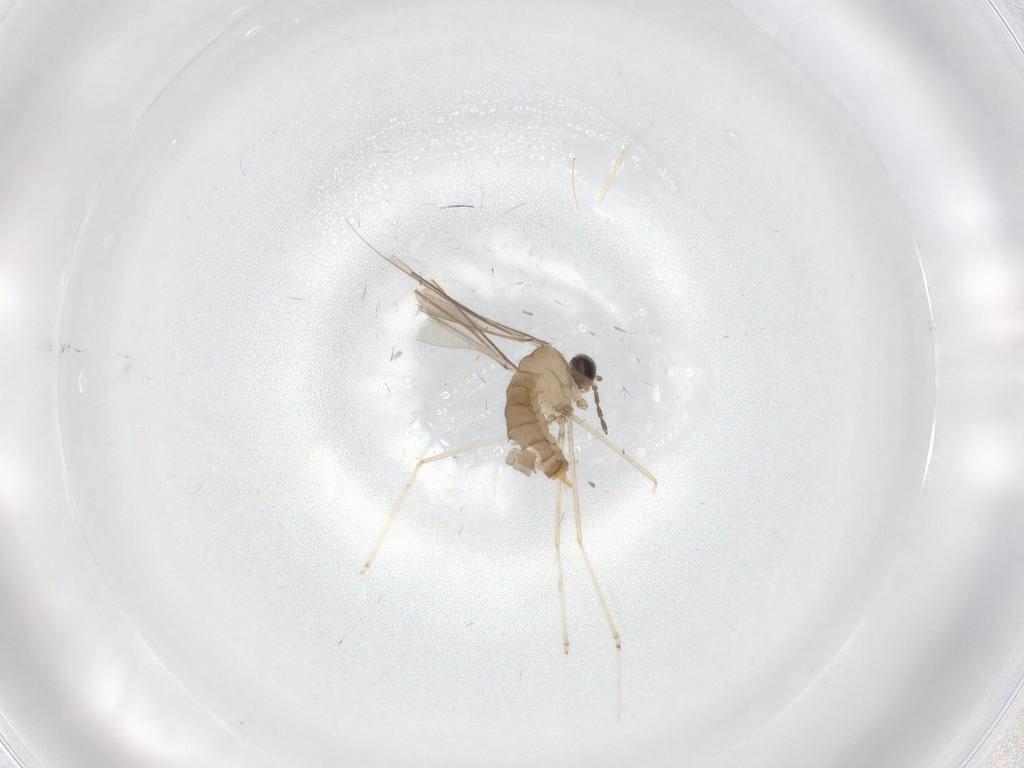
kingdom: Animalia
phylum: Arthropoda
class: Insecta
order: Diptera
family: Cecidomyiidae
